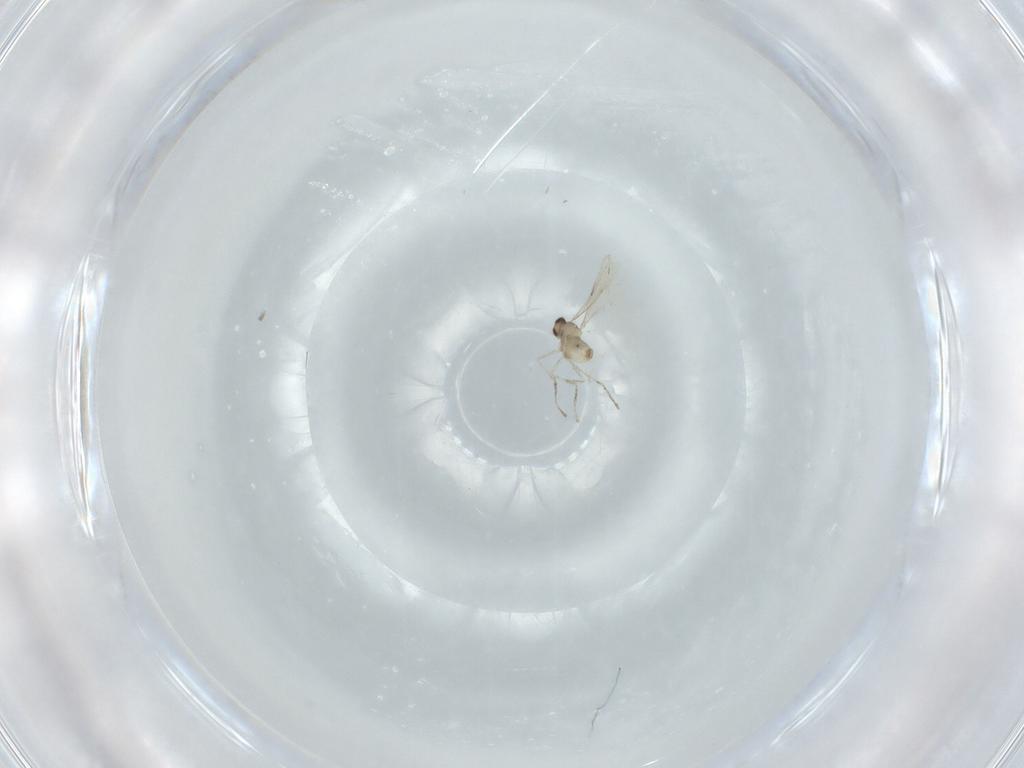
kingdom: Animalia
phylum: Arthropoda
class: Insecta
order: Diptera
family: Cecidomyiidae
